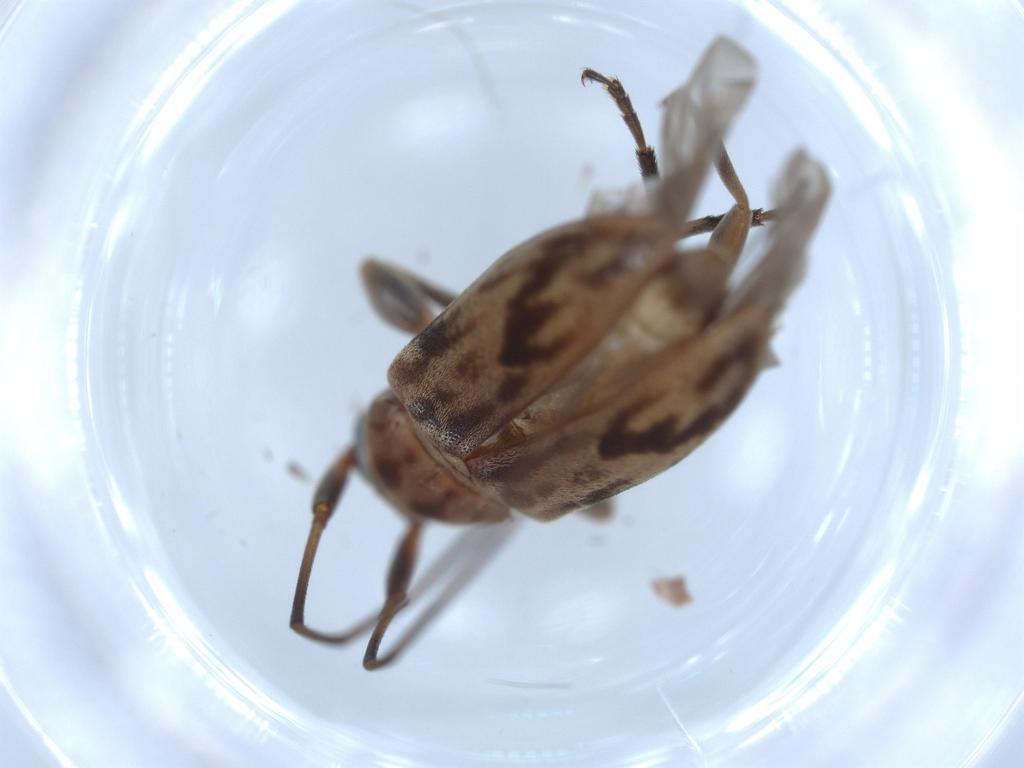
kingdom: Animalia
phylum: Arthropoda
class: Insecta
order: Coleoptera
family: Cerambycidae
